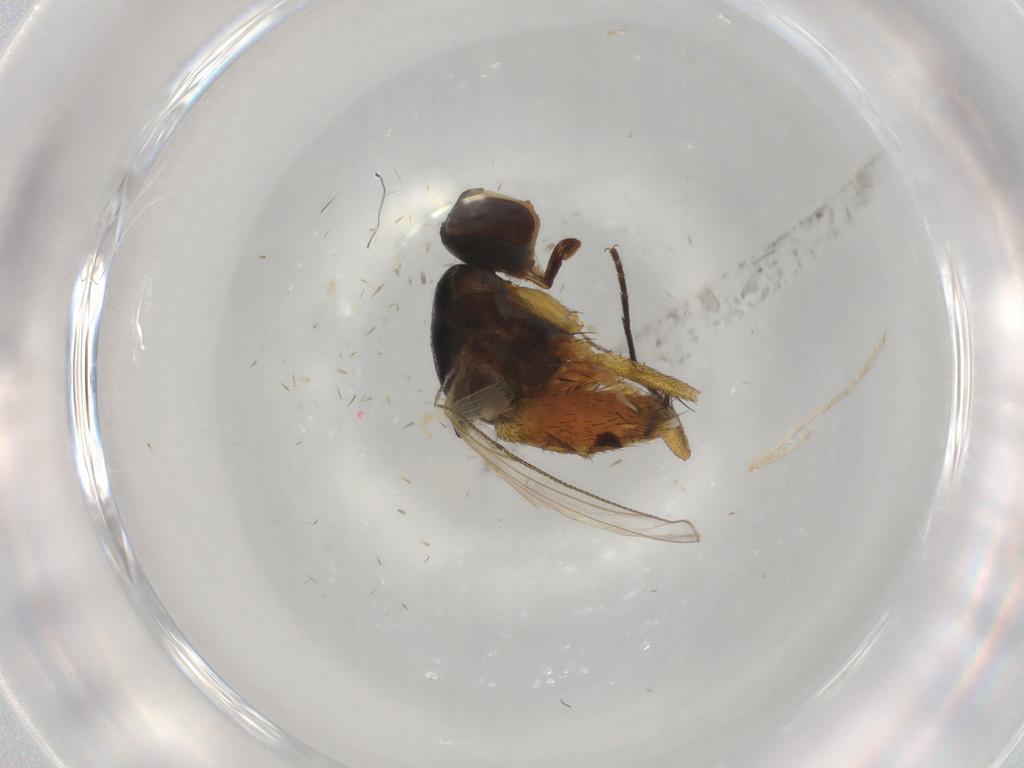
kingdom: Animalia
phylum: Arthropoda
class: Insecta
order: Diptera
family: Muscidae
